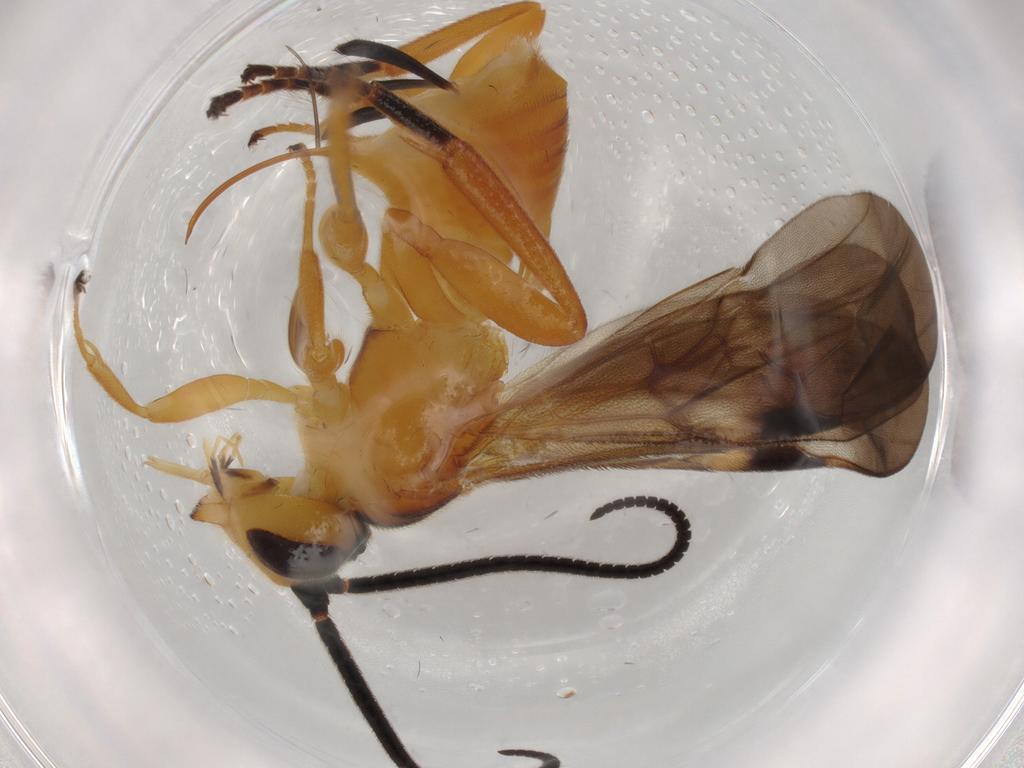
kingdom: Animalia
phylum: Arthropoda
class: Insecta
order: Hymenoptera
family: Braconidae
